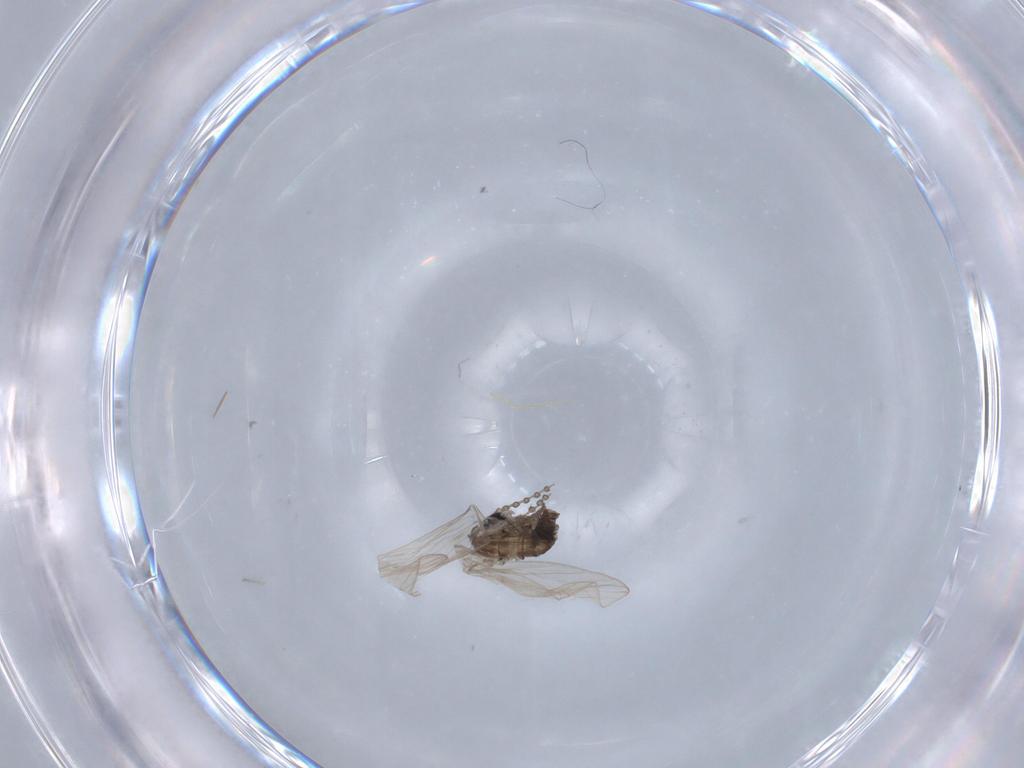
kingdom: Animalia
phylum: Arthropoda
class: Insecta
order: Diptera
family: Psychodidae
